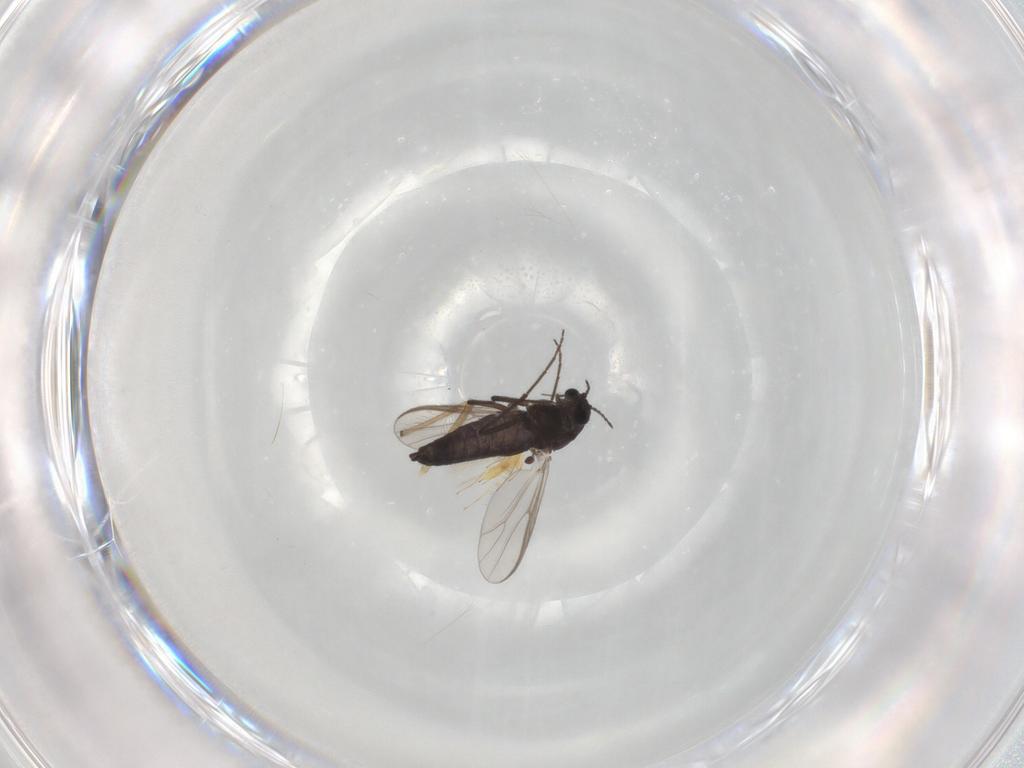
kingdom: Animalia
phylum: Arthropoda
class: Insecta
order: Diptera
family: Chironomidae
